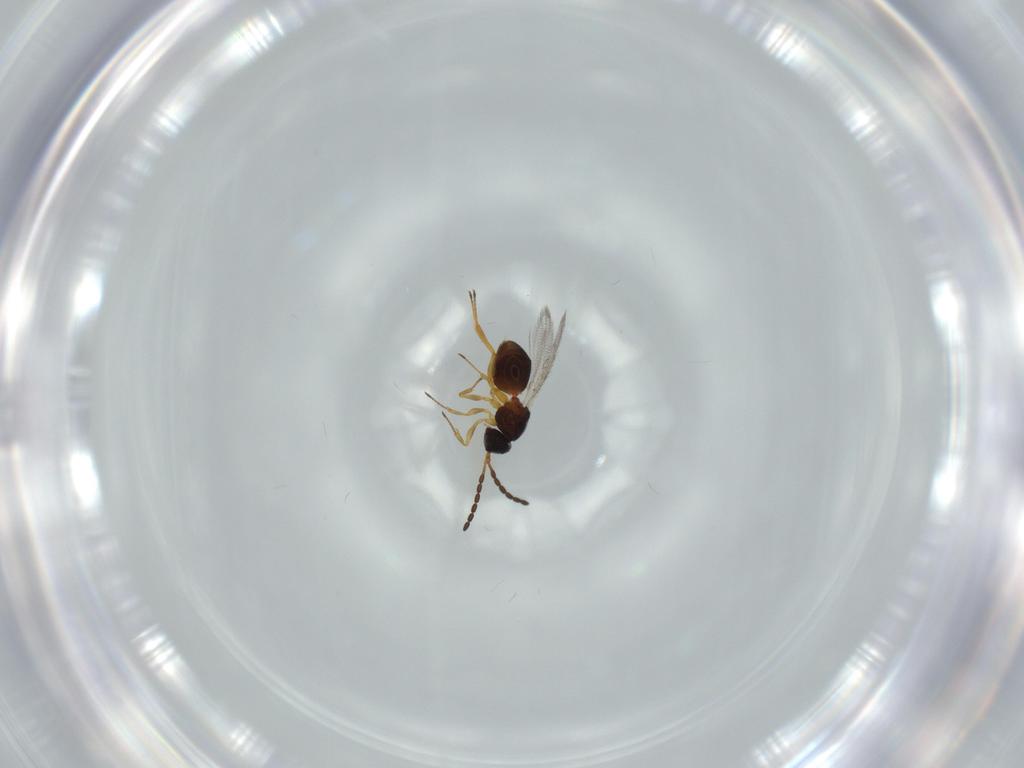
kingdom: Animalia
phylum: Arthropoda
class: Insecta
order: Hymenoptera
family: Figitidae
